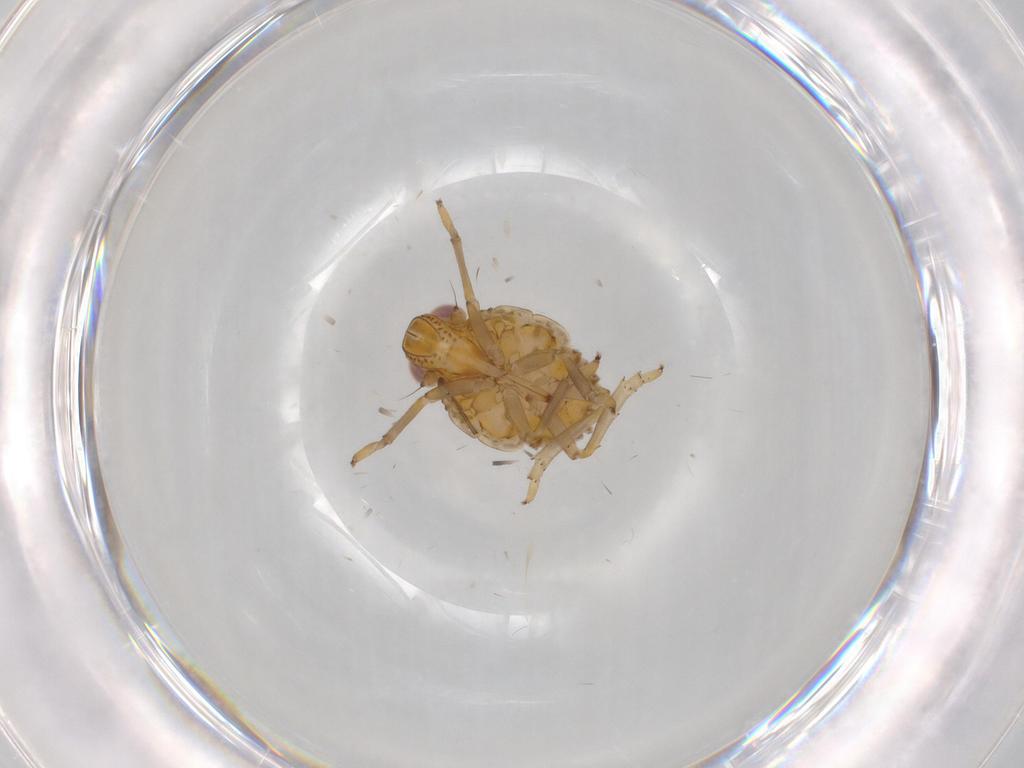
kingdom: Animalia
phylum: Arthropoda
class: Insecta
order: Hemiptera
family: Issidae
